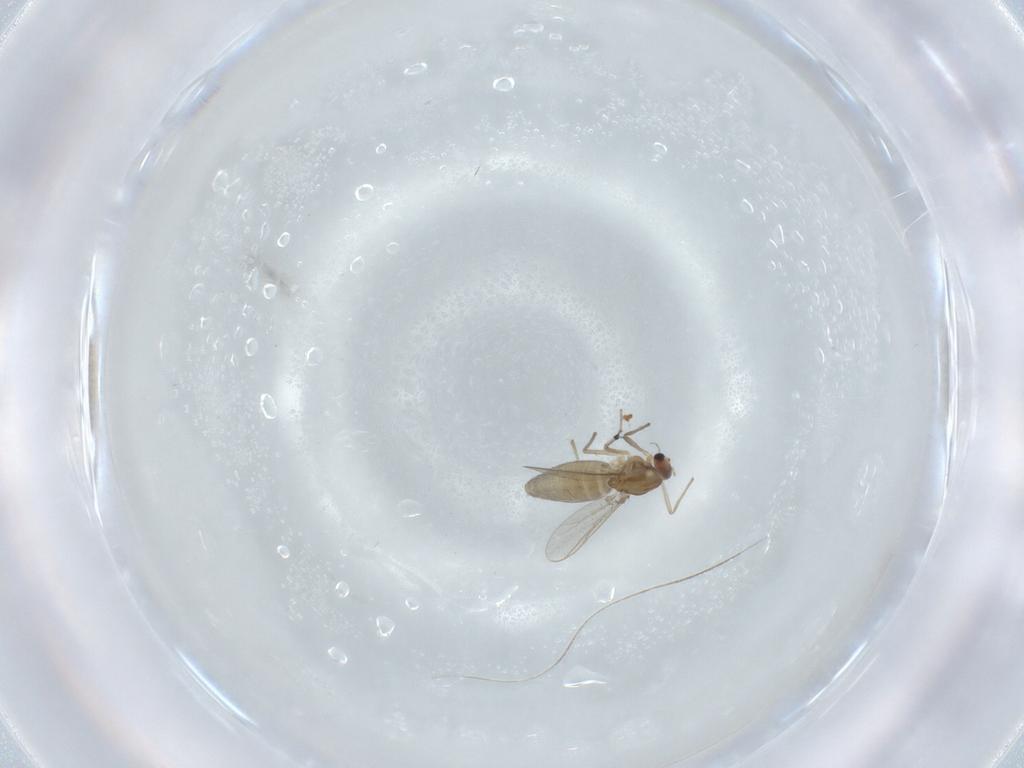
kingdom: Animalia
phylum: Arthropoda
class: Insecta
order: Diptera
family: Chironomidae
